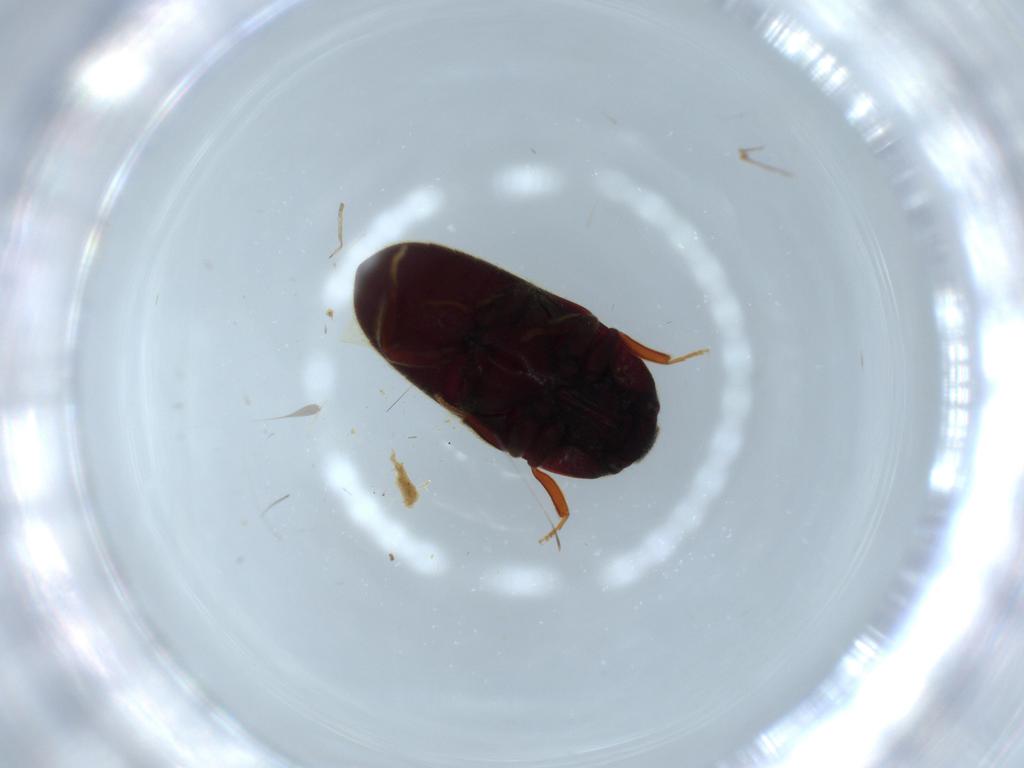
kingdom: Animalia
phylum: Arthropoda
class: Insecta
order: Coleoptera
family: Throscidae
